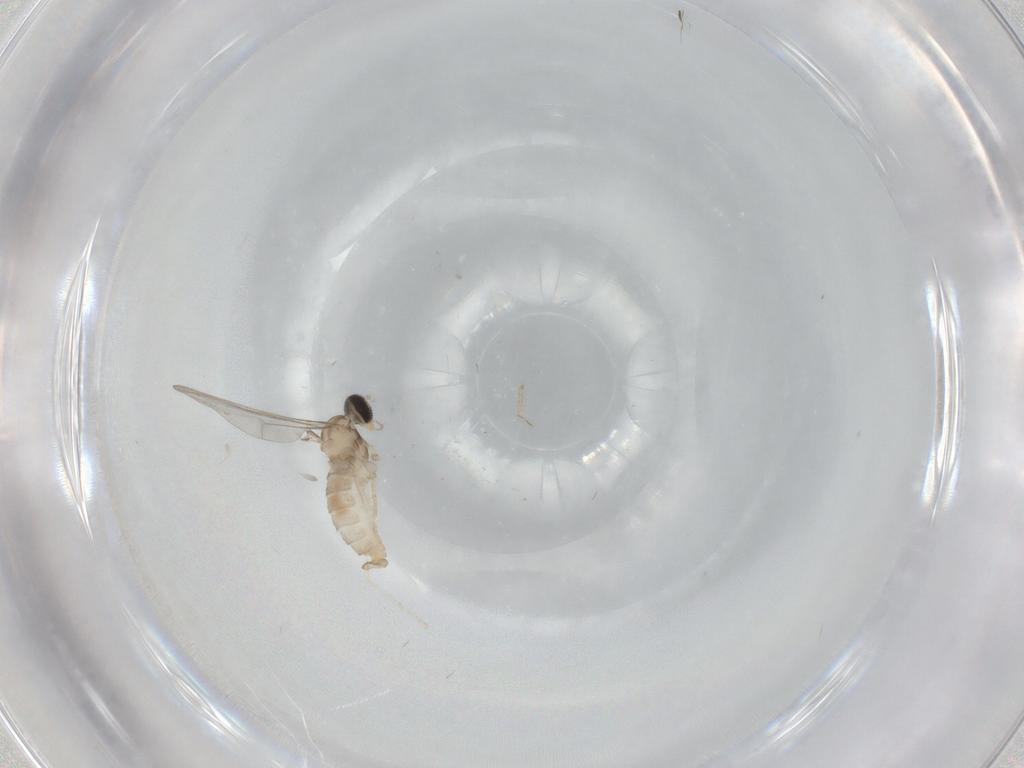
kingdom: Animalia
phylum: Arthropoda
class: Insecta
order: Diptera
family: Cecidomyiidae
